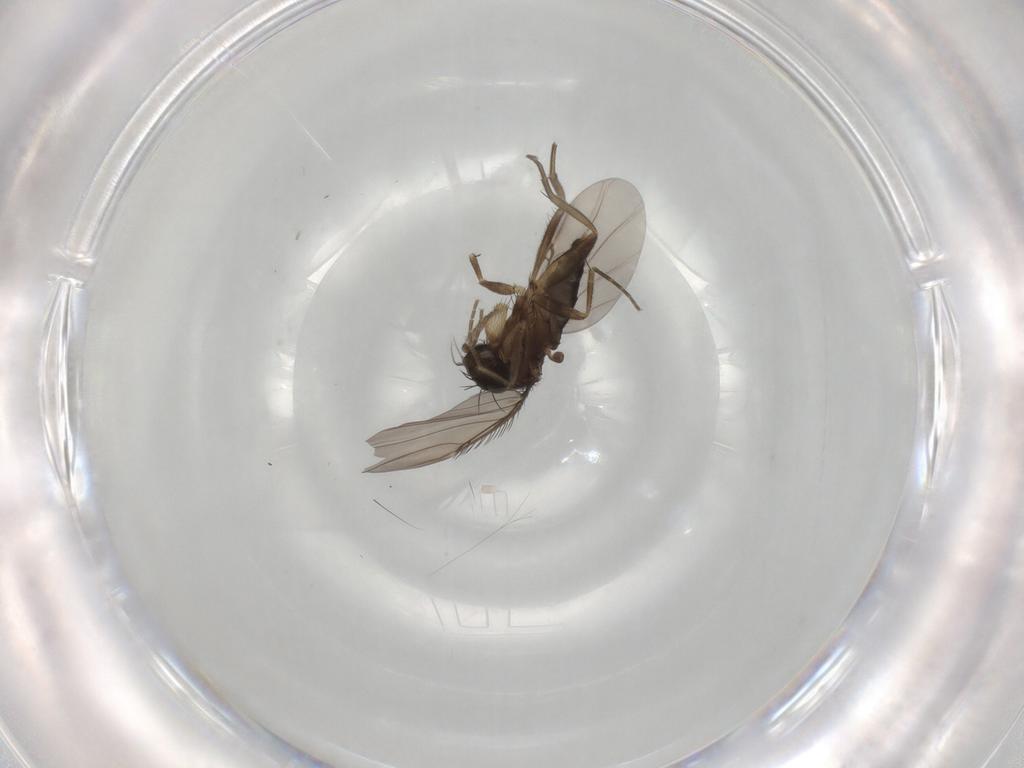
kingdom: Animalia
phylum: Arthropoda
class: Insecta
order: Diptera
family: Phoridae
